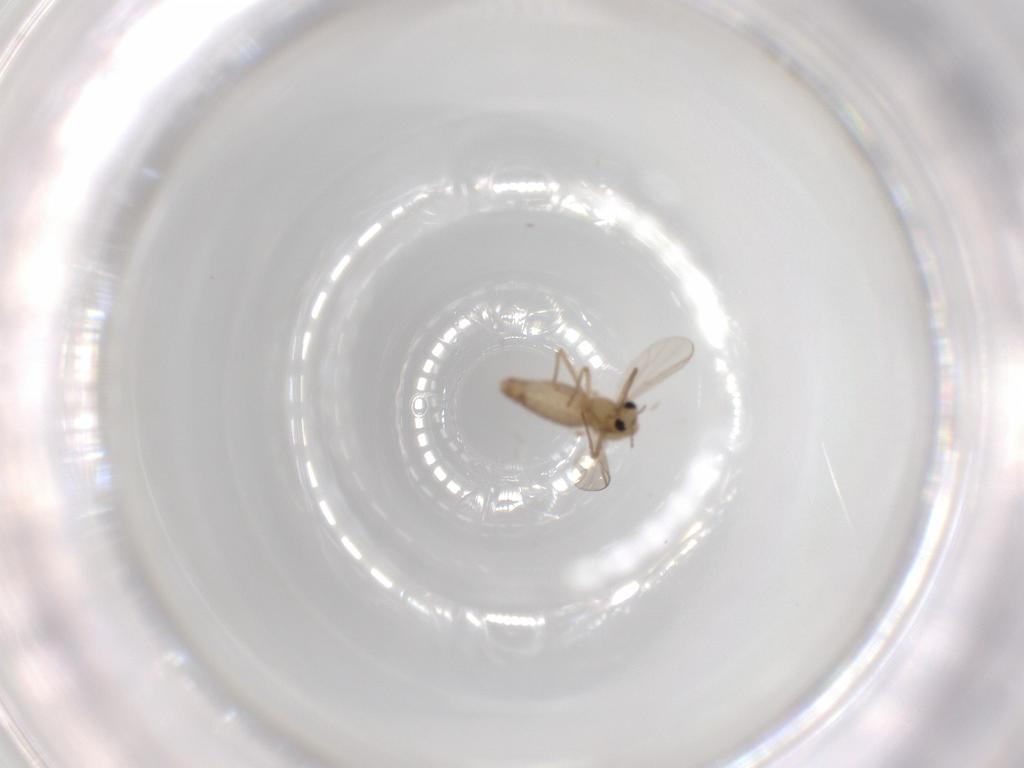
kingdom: Animalia
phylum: Arthropoda
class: Insecta
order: Diptera
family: Chironomidae
